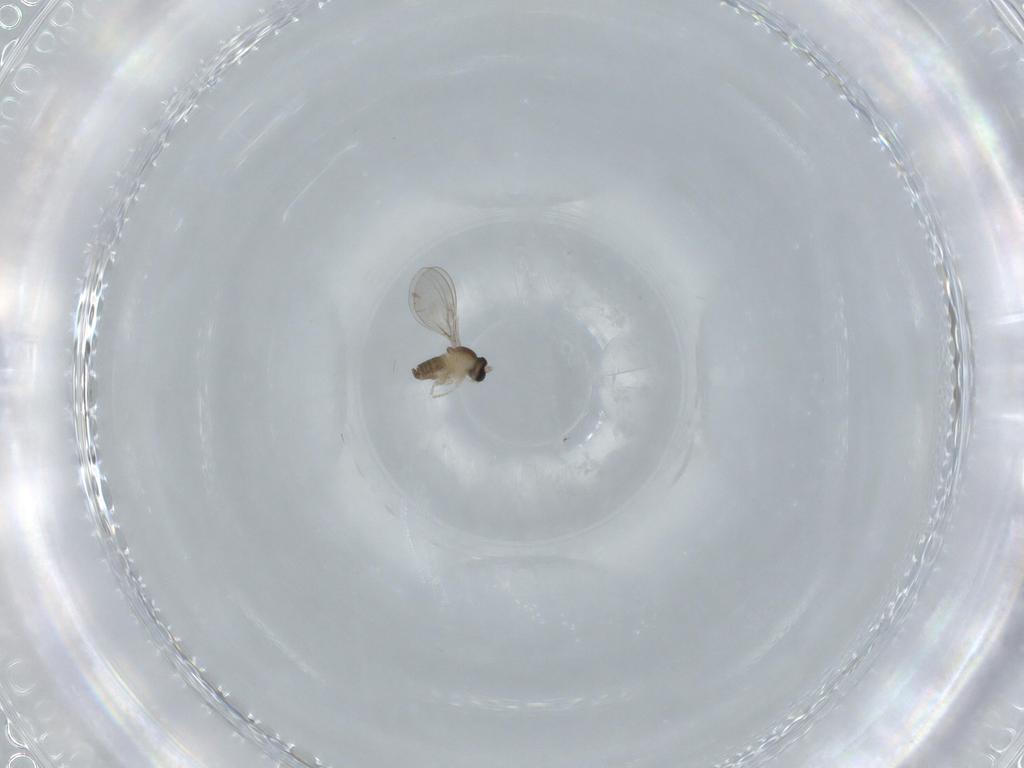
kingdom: Animalia
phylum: Arthropoda
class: Insecta
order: Diptera
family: Cecidomyiidae
